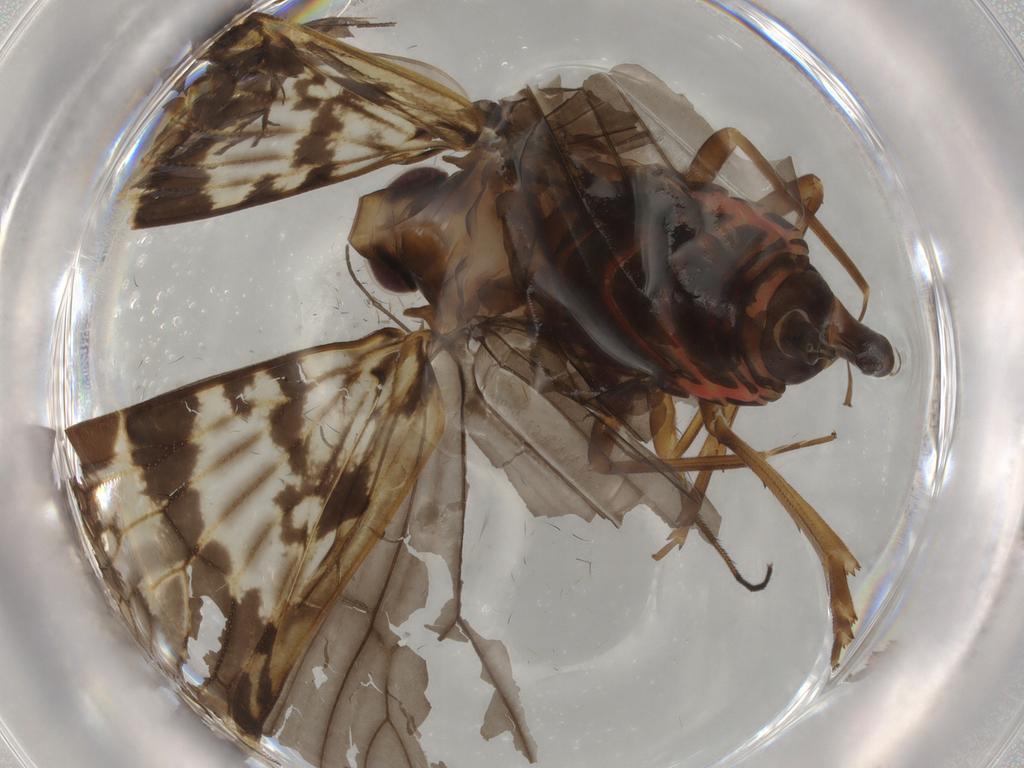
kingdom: Animalia
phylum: Arthropoda
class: Insecta
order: Hemiptera
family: Cixiidae
